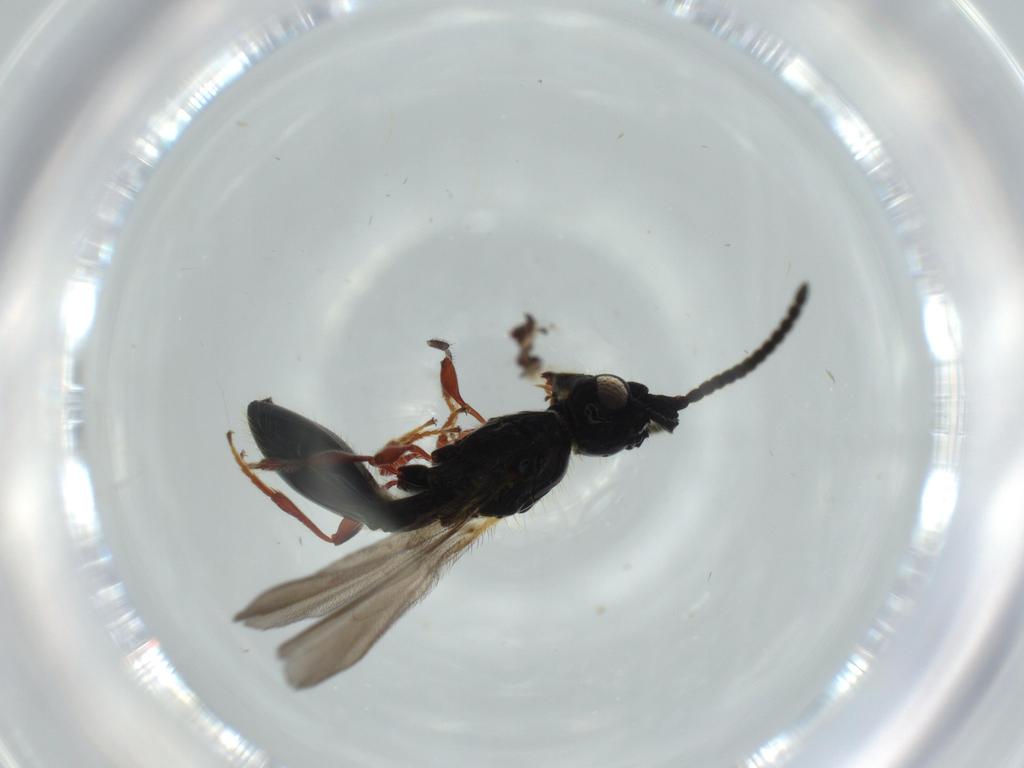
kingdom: Animalia
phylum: Arthropoda
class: Insecta
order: Hymenoptera
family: Diapriidae
